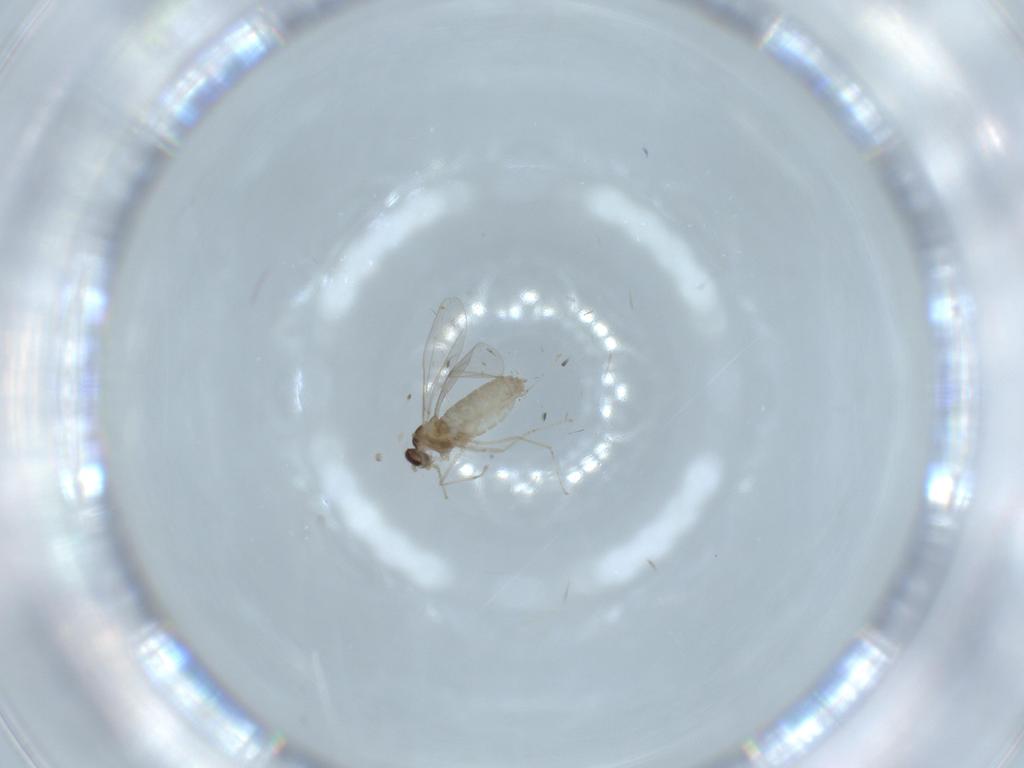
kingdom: Animalia
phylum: Arthropoda
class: Insecta
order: Diptera
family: Cecidomyiidae
